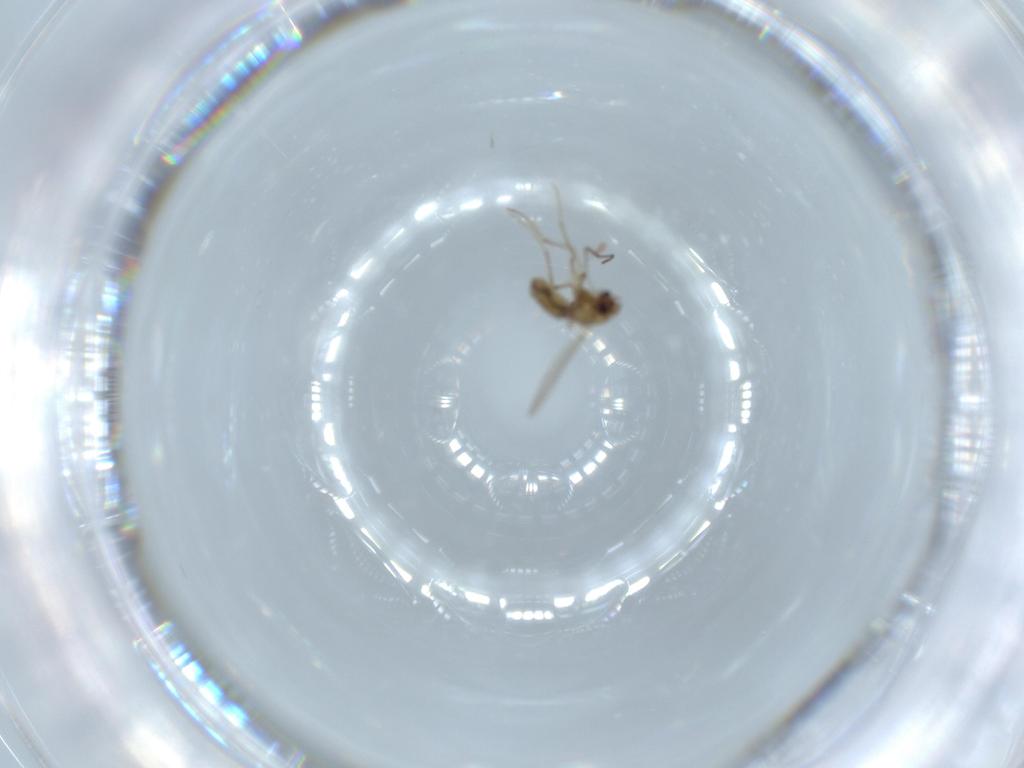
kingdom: Animalia
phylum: Arthropoda
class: Insecta
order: Diptera
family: Chironomidae
